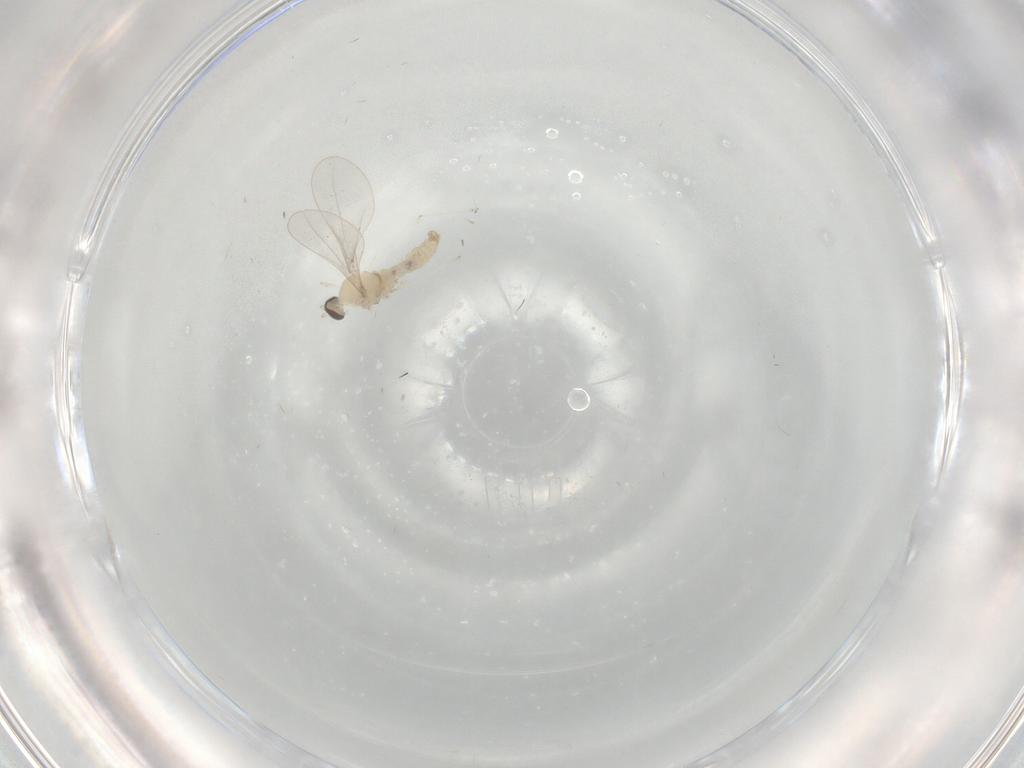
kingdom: Animalia
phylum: Arthropoda
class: Insecta
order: Diptera
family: Cecidomyiidae
